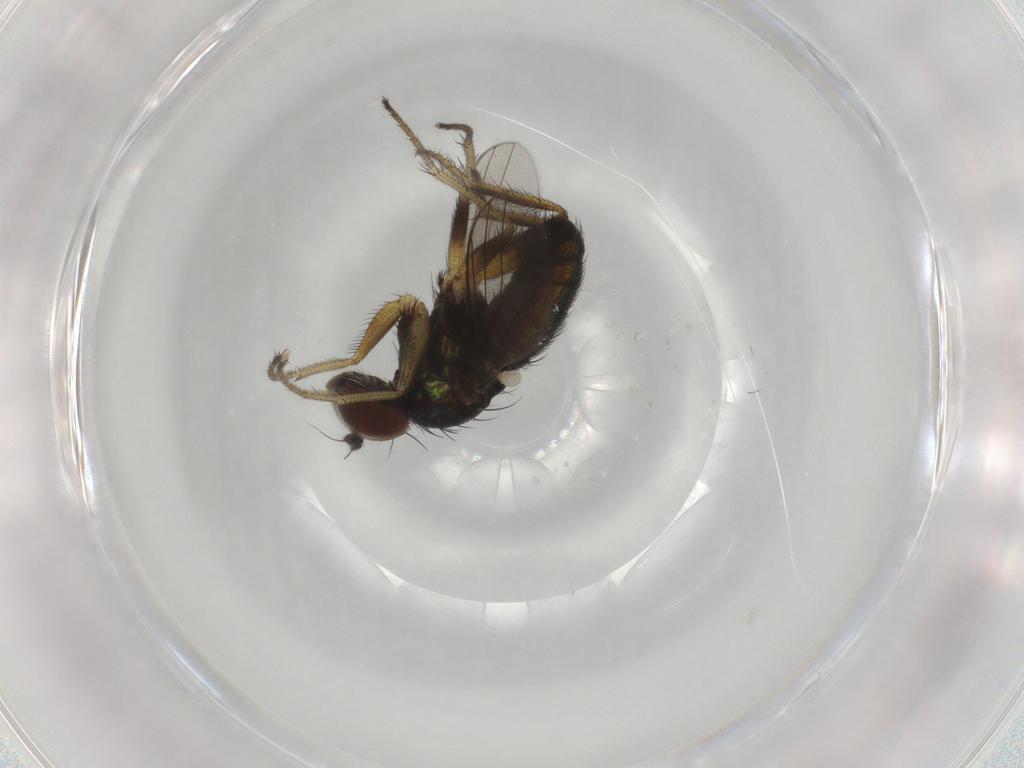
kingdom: Animalia
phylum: Arthropoda
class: Insecta
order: Diptera
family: Dolichopodidae
